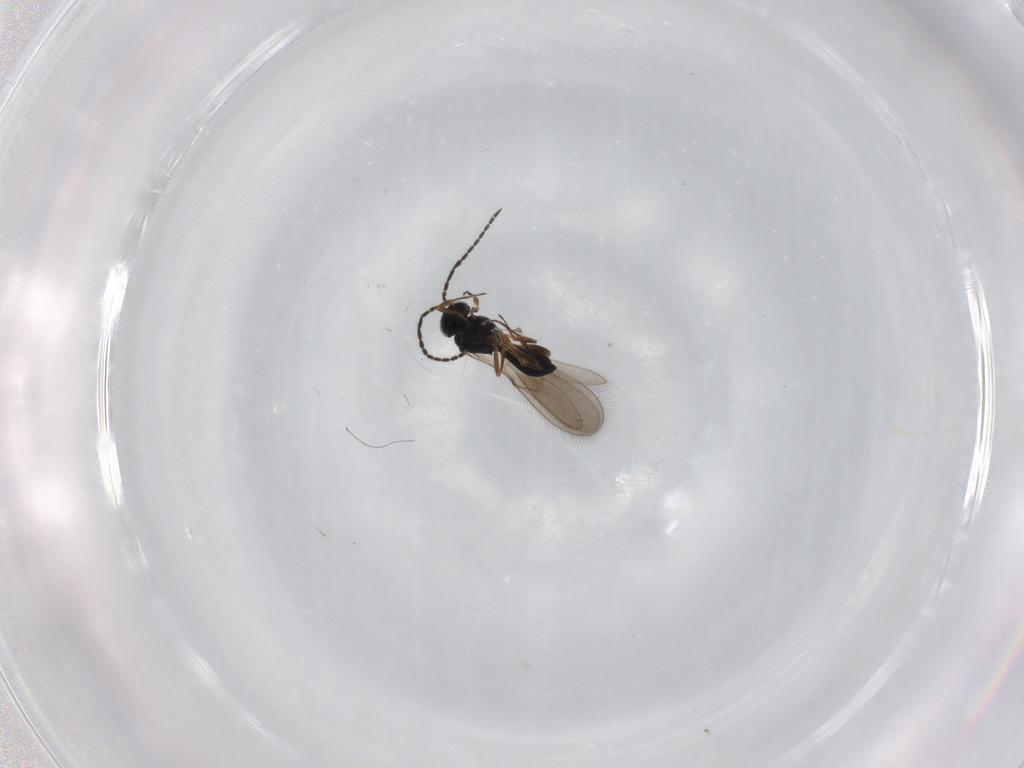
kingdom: Animalia
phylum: Arthropoda
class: Insecta
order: Hymenoptera
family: Scelionidae
